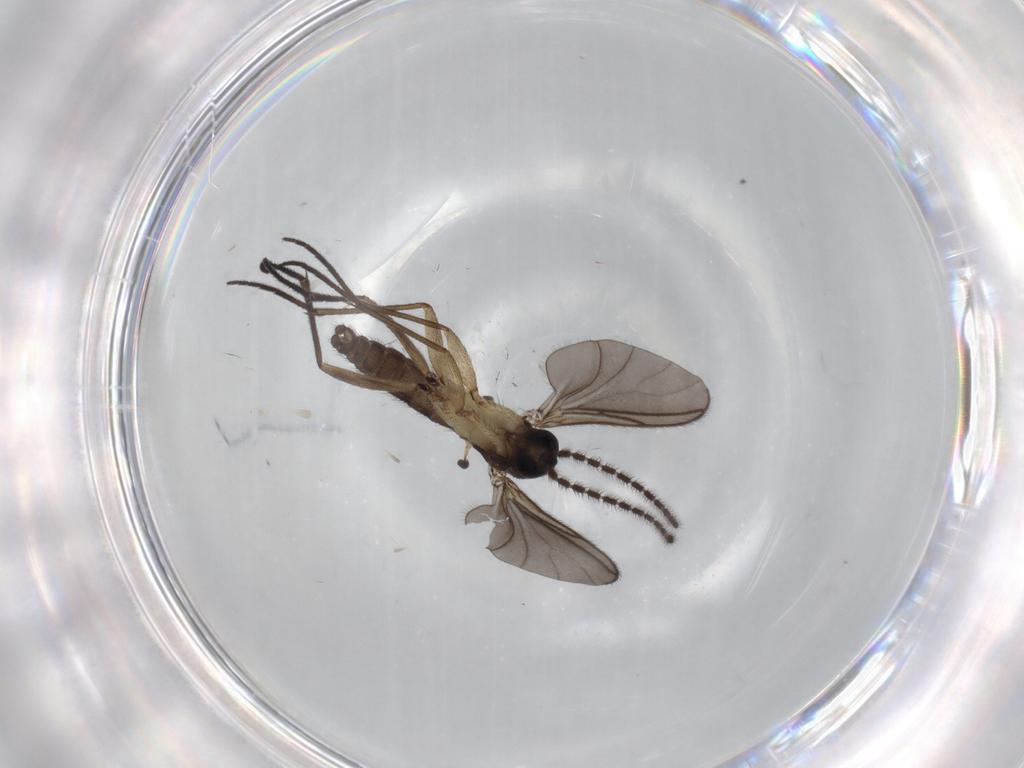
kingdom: Animalia
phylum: Arthropoda
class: Insecta
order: Diptera
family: Sciaridae
